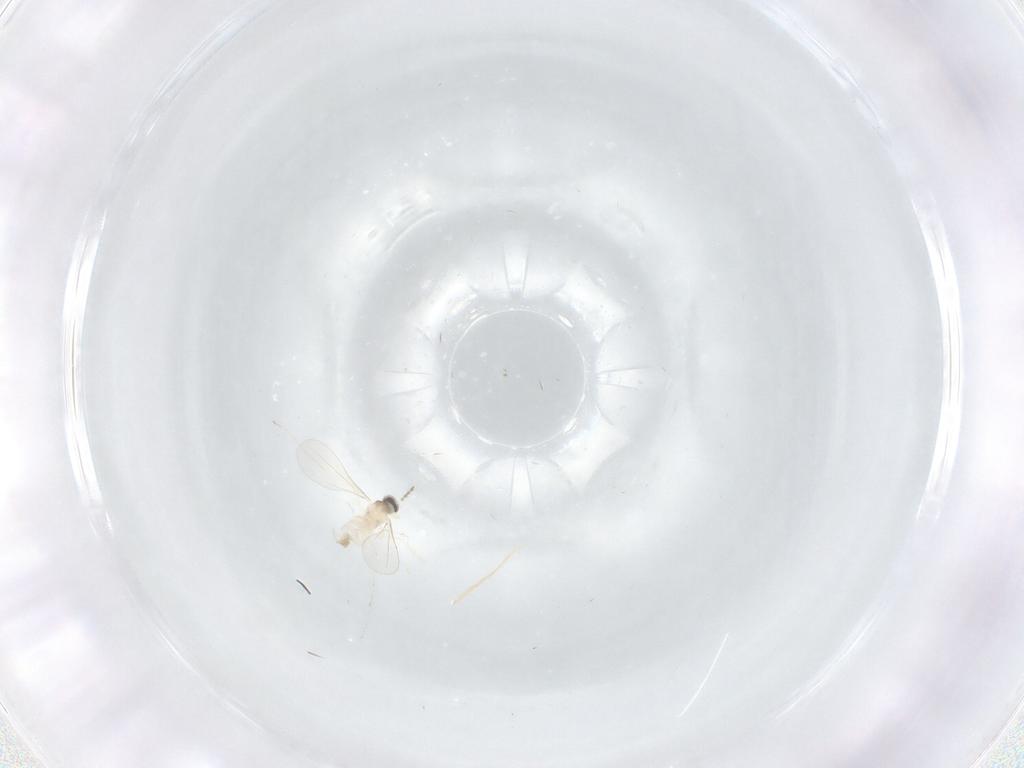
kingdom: Animalia
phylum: Arthropoda
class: Insecta
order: Diptera
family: Cecidomyiidae
